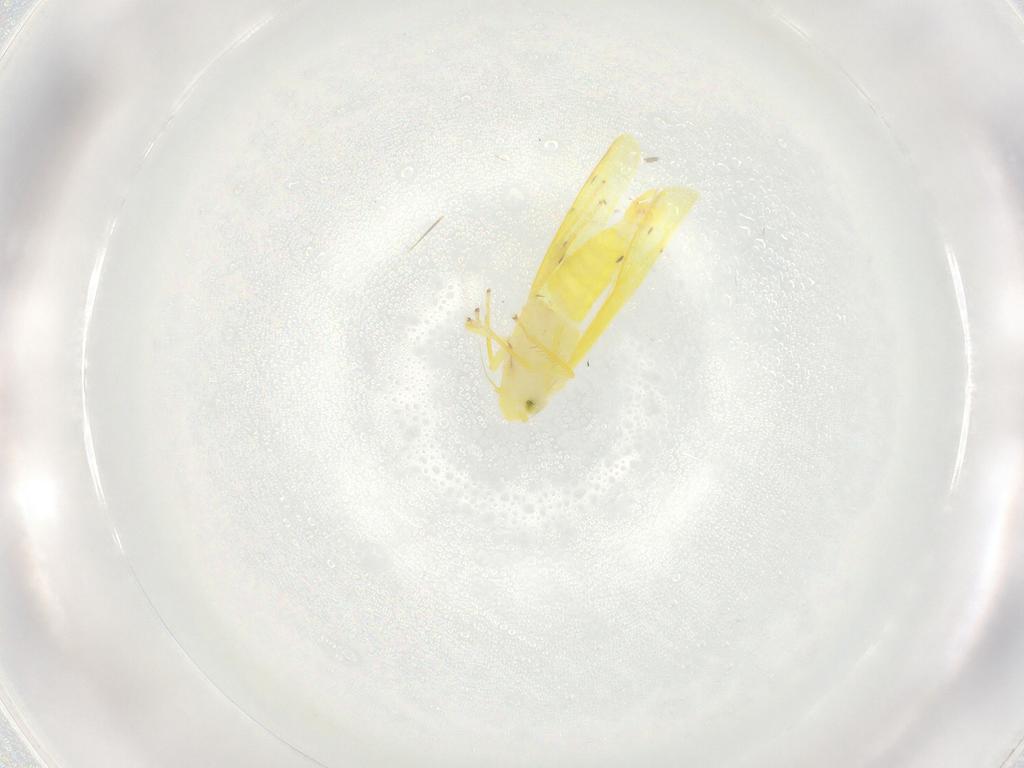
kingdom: Animalia
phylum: Arthropoda
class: Insecta
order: Hemiptera
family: Cicadellidae
